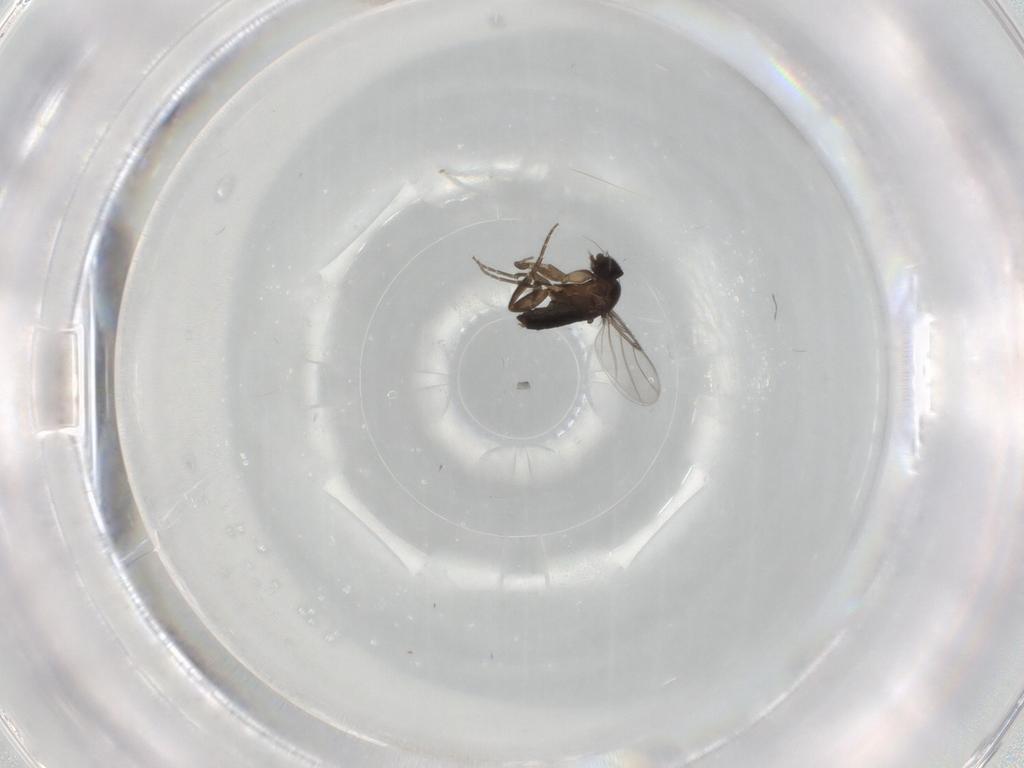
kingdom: Animalia
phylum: Arthropoda
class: Insecta
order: Diptera
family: Phoridae
